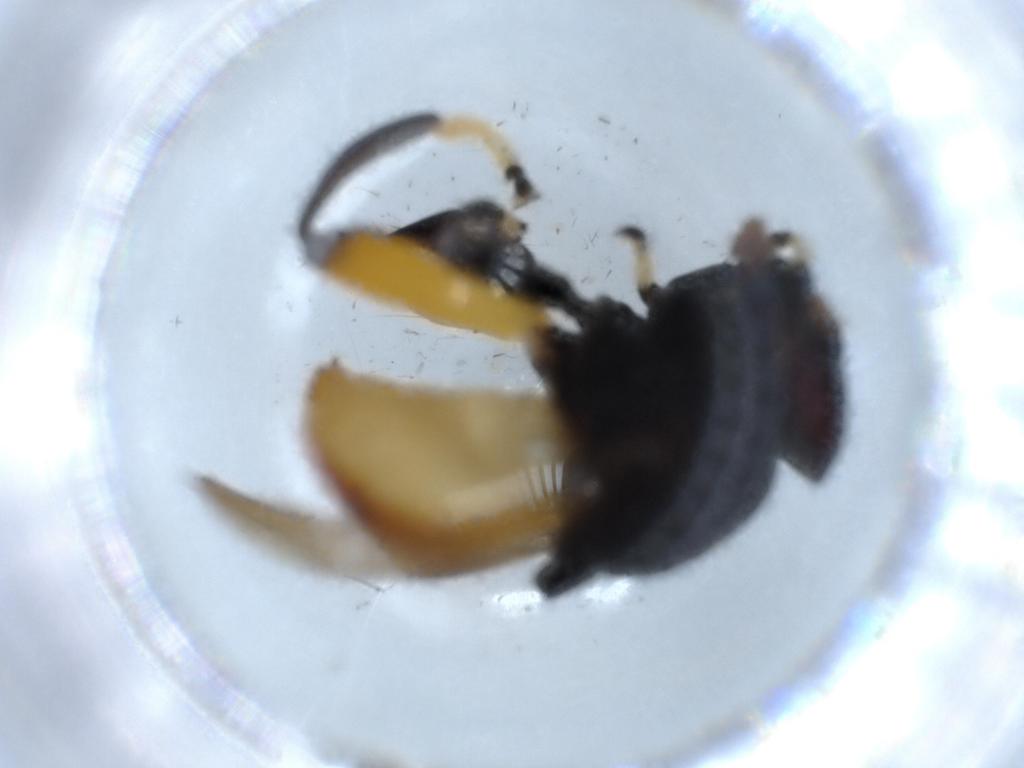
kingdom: Animalia
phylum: Arthropoda
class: Insecta
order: Diptera
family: Syrphidae
